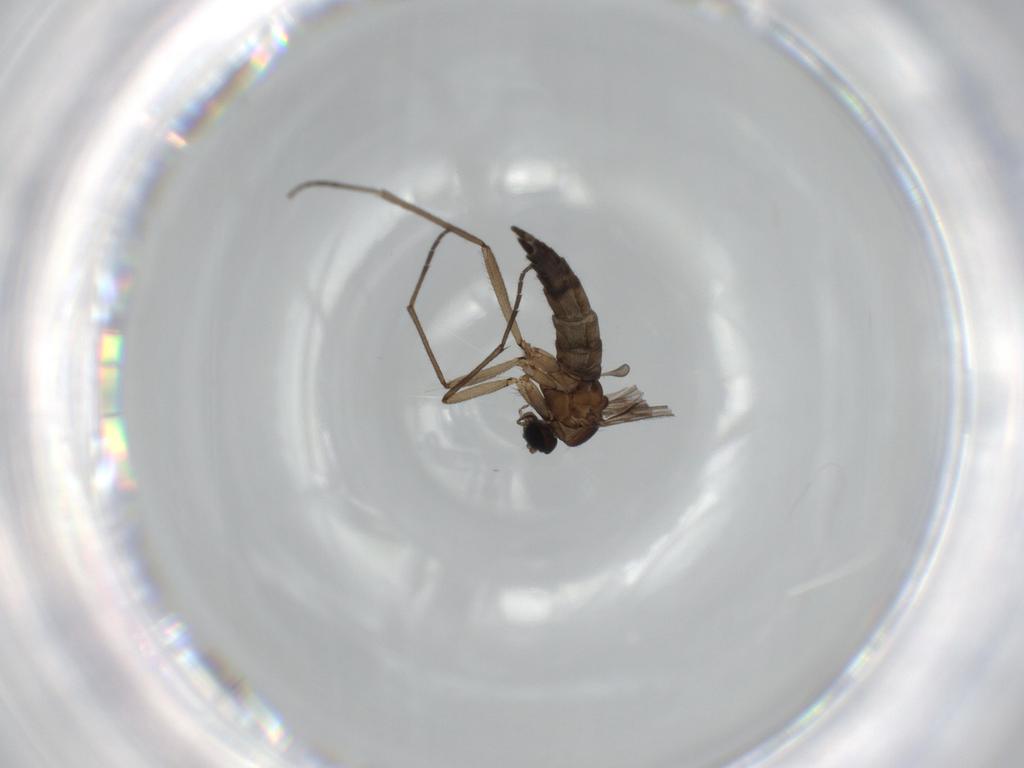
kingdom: Animalia
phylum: Arthropoda
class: Insecta
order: Diptera
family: Sciaridae
